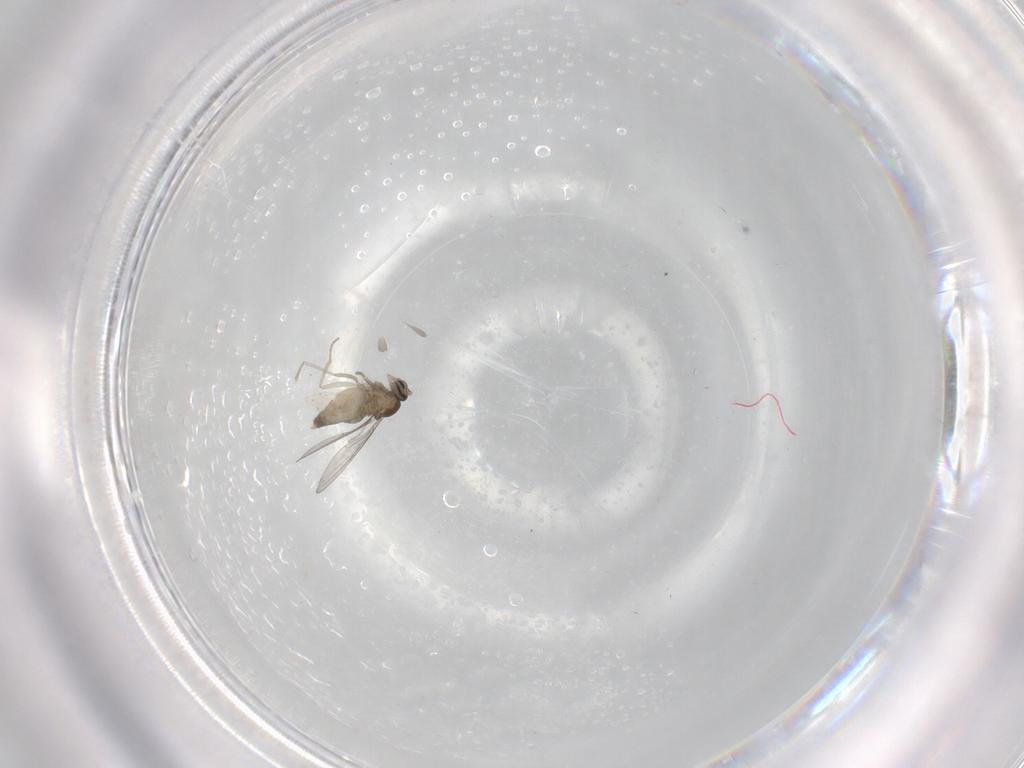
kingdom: Animalia
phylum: Arthropoda
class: Insecta
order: Diptera
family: Cecidomyiidae
